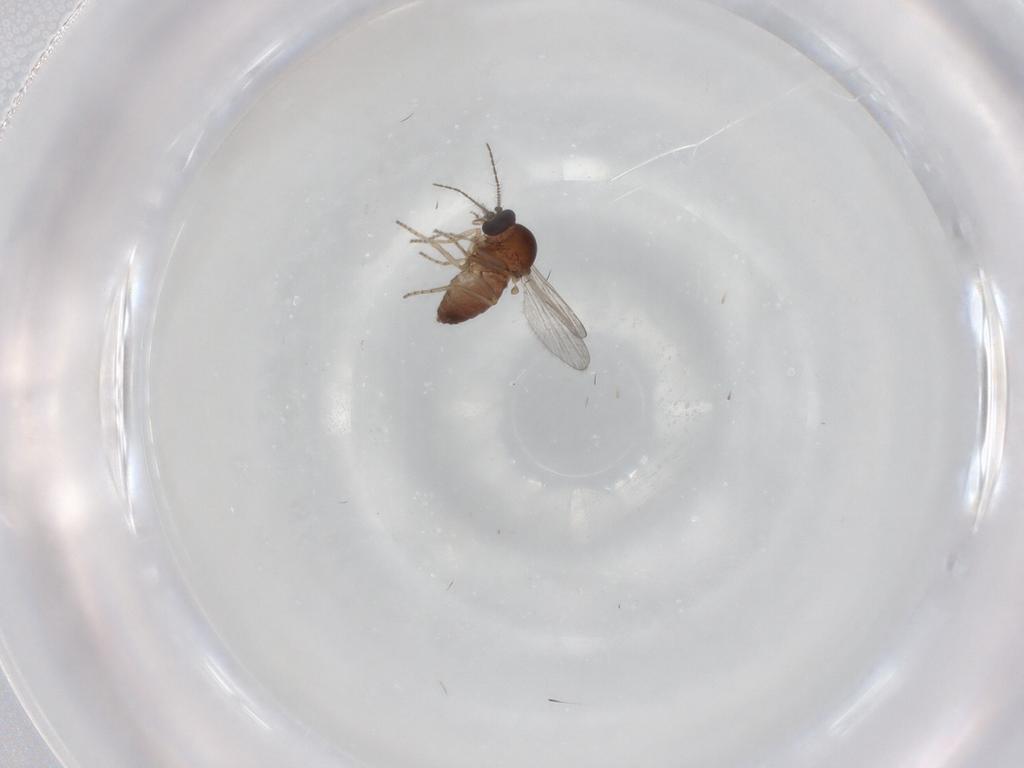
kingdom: Animalia
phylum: Arthropoda
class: Insecta
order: Diptera
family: Ceratopogonidae
